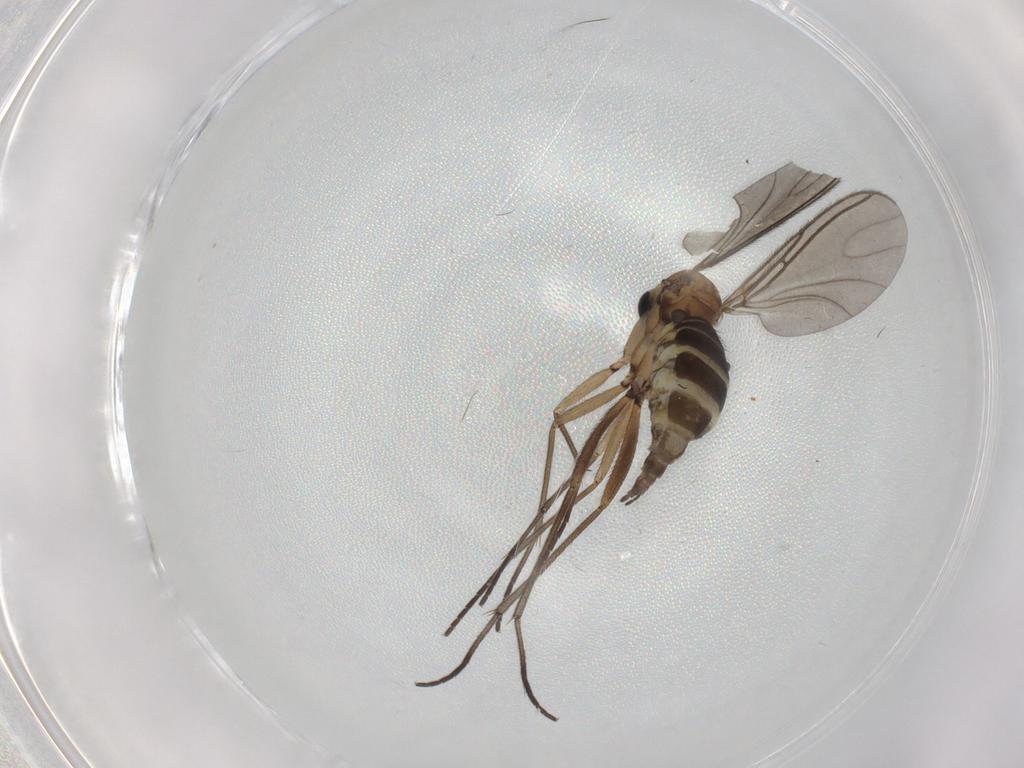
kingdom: Animalia
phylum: Arthropoda
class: Insecta
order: Diptera
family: Sciaridae
